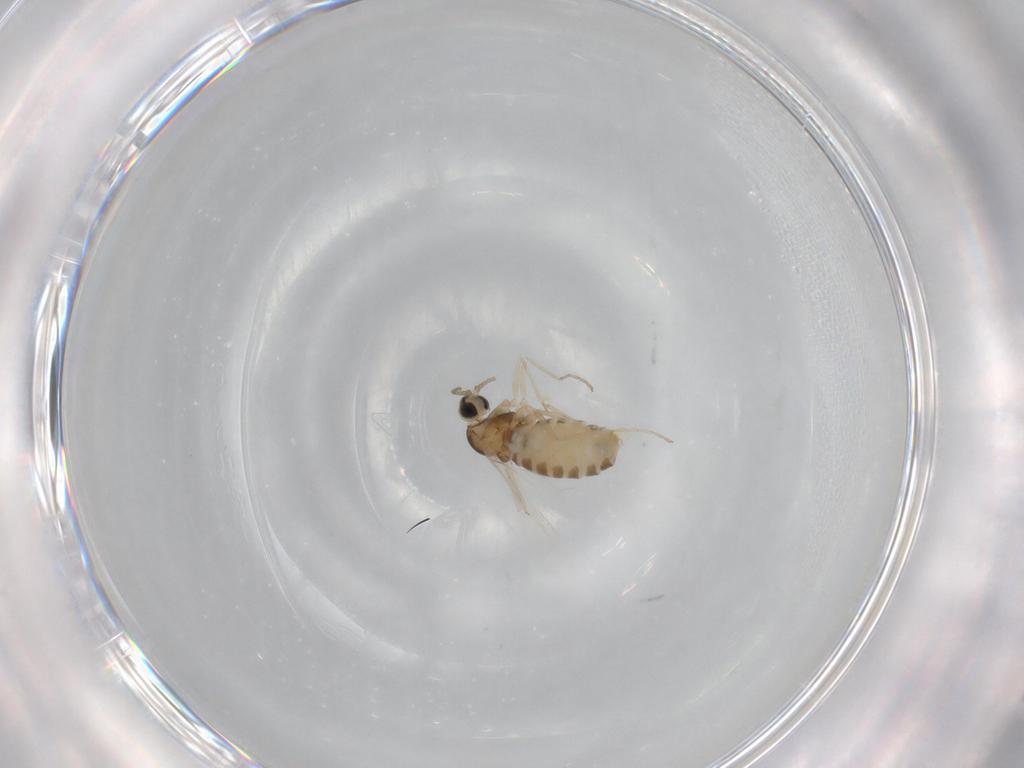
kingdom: Animalia
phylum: Arthropoda
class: Insecta
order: Diptera
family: Cecidomyiidae
